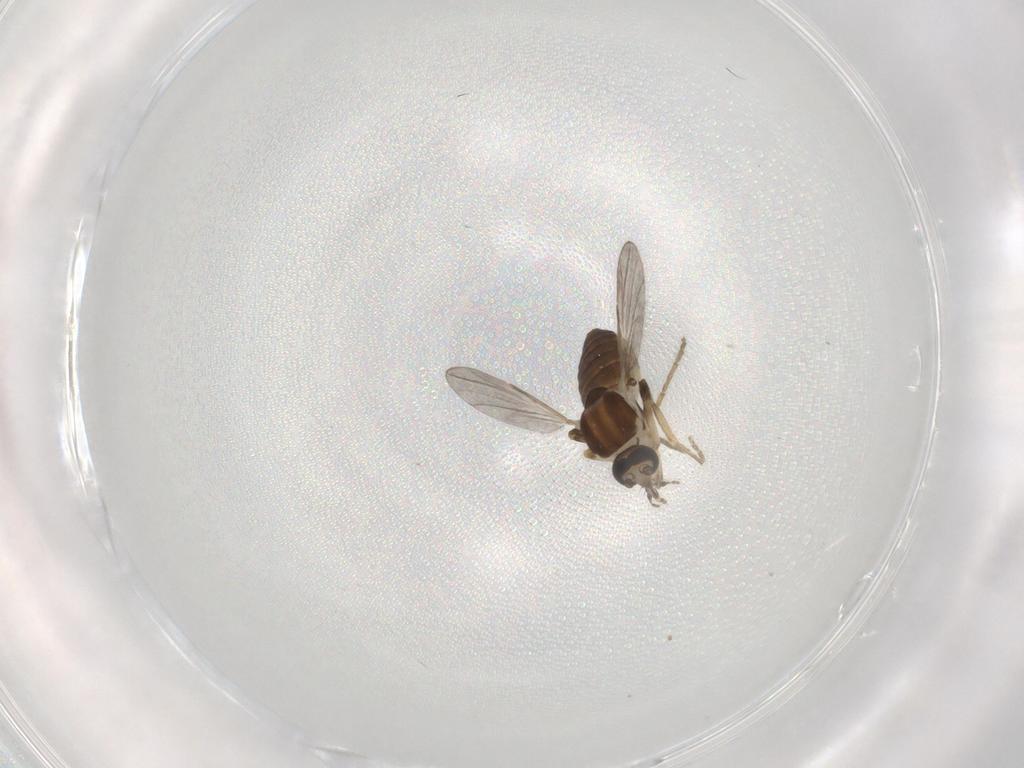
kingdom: Animalia
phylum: Arthropoda
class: Insecta
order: Diptera
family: Ceratopogonidae
